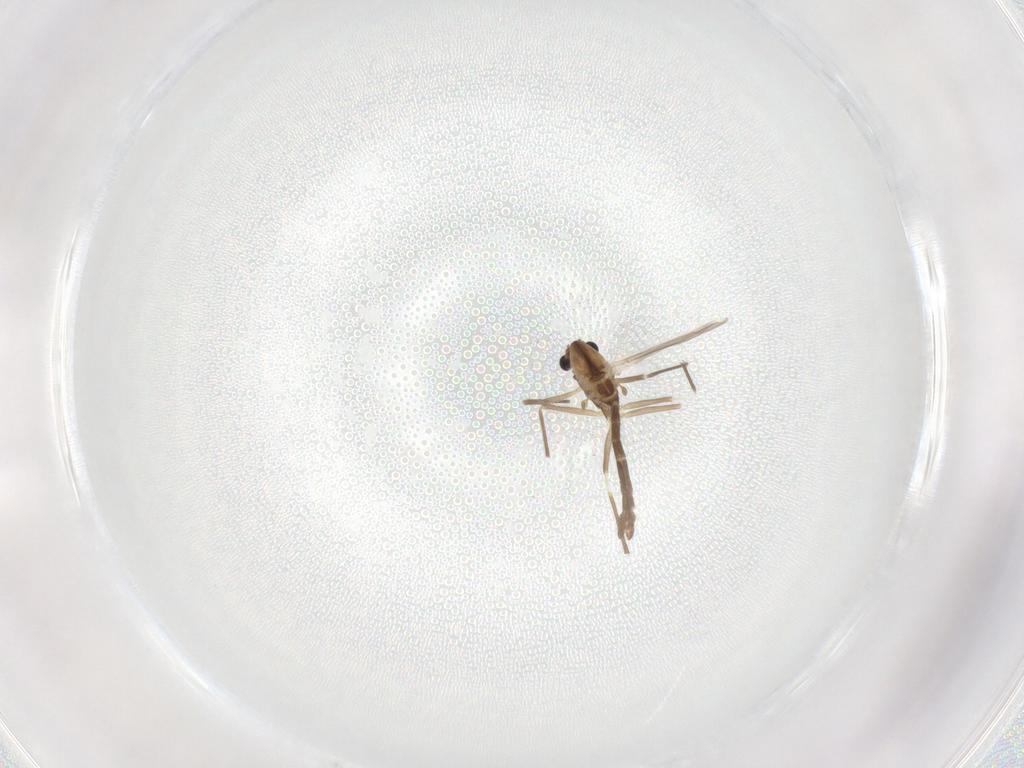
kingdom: Animalia
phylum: Arthropoda
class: Insecta
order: Diptera
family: Chironomidae
